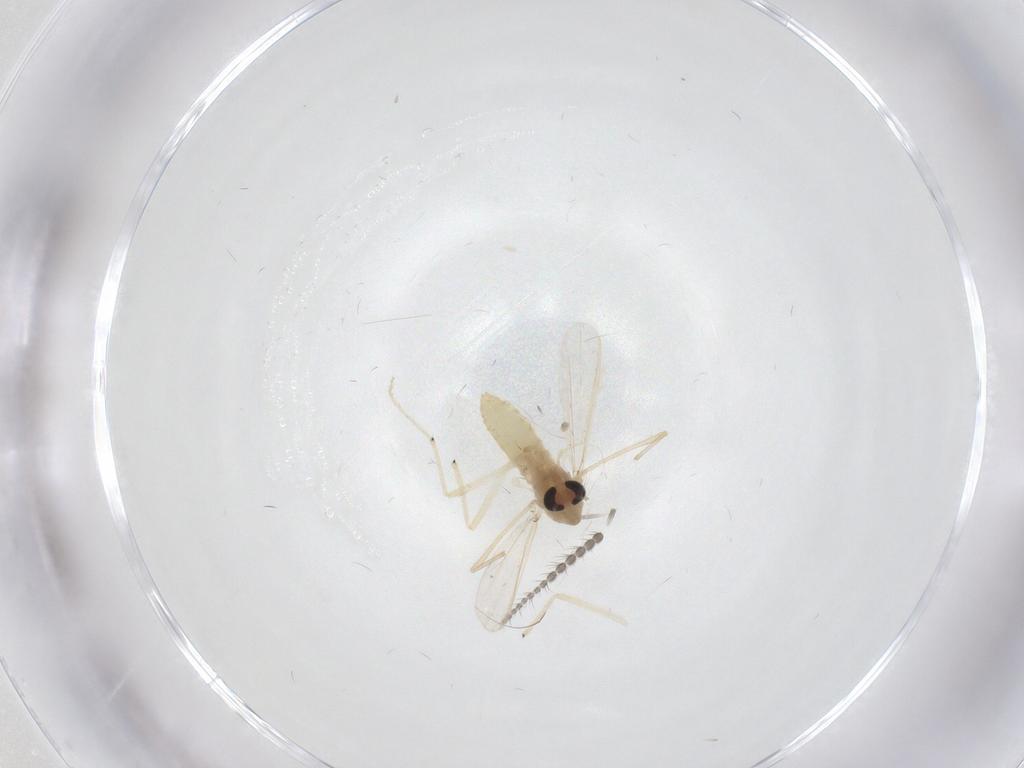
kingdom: Animalia
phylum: Arthropoda
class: Insecta
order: Diptera
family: Chironomidae
